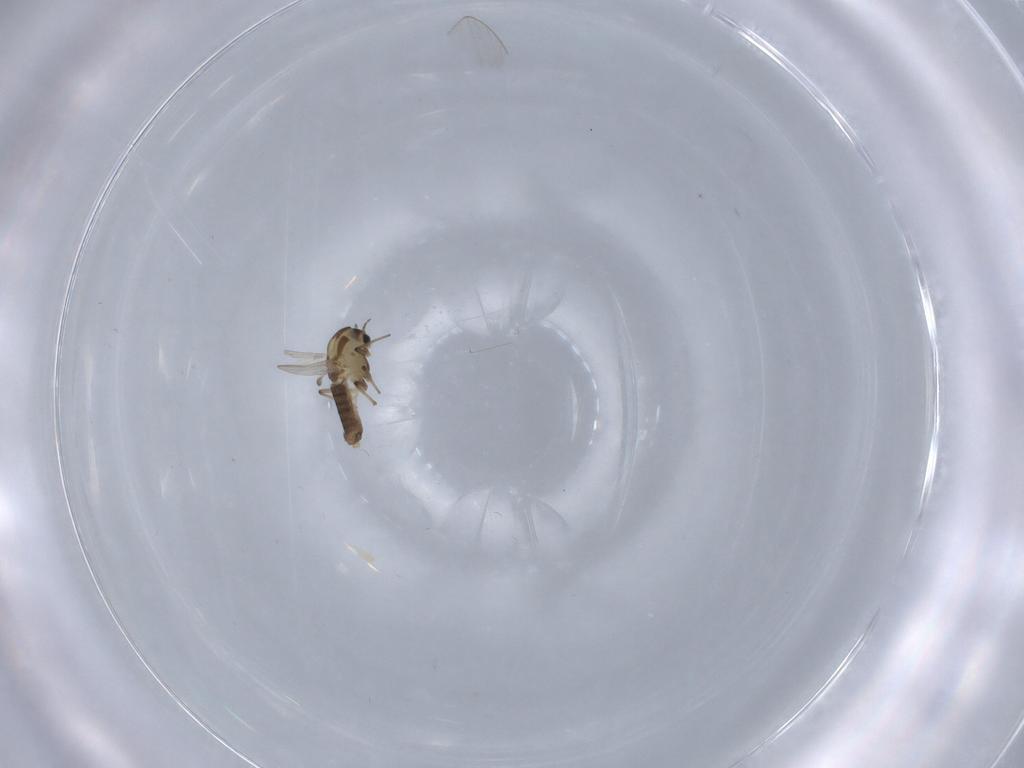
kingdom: Animalia
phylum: Arthropoda
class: Insecta
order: Diptera
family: Chironomidae
